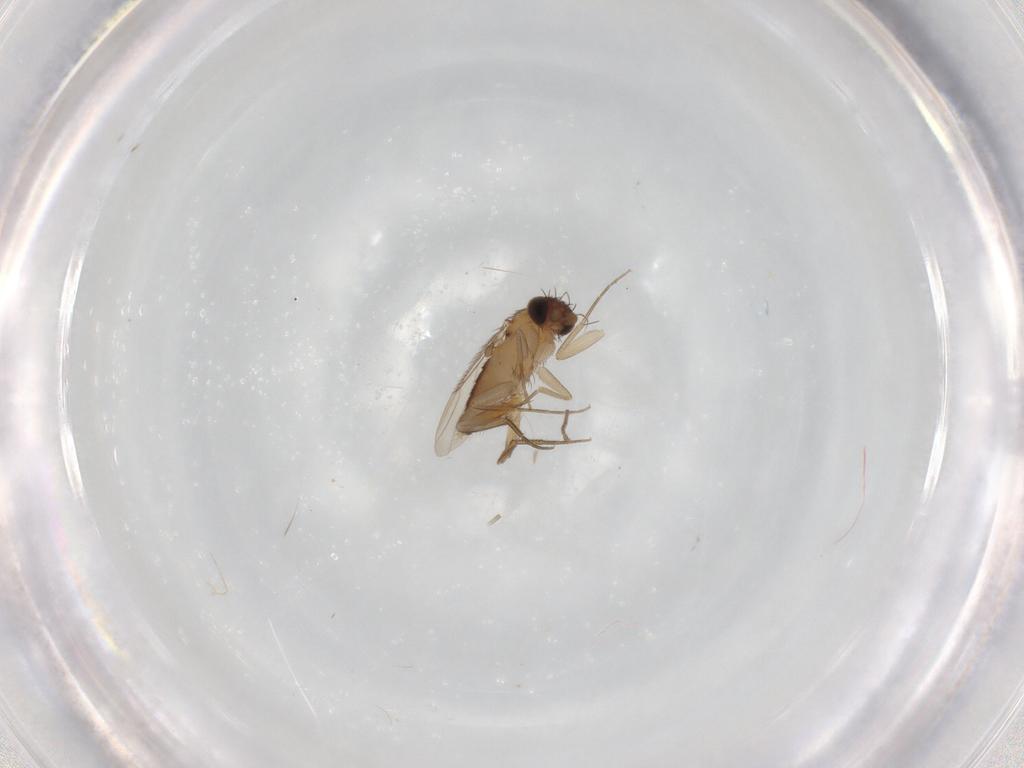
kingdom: Animalia
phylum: Arthropoda
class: Insecta
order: Diptera
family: Phoridae
